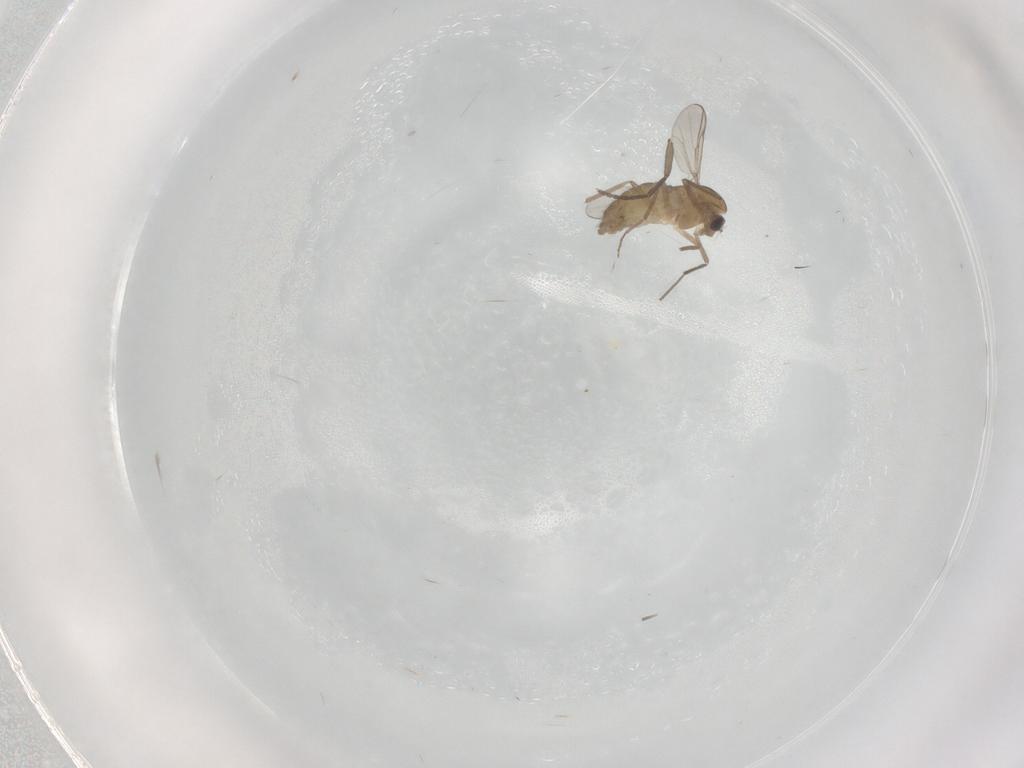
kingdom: Animalia
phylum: Arthropoda
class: Insecta
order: Diptera
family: Chironomidae
